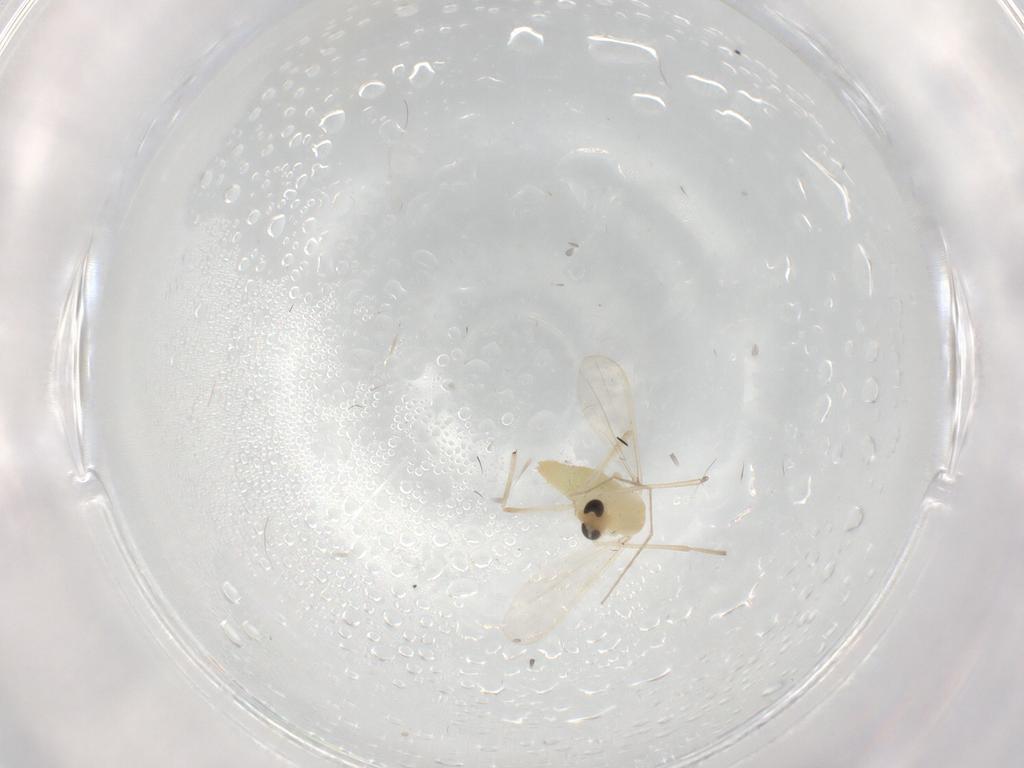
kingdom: Animalia
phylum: Arthropoda
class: Insecta
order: Diptera
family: Chironomidae
